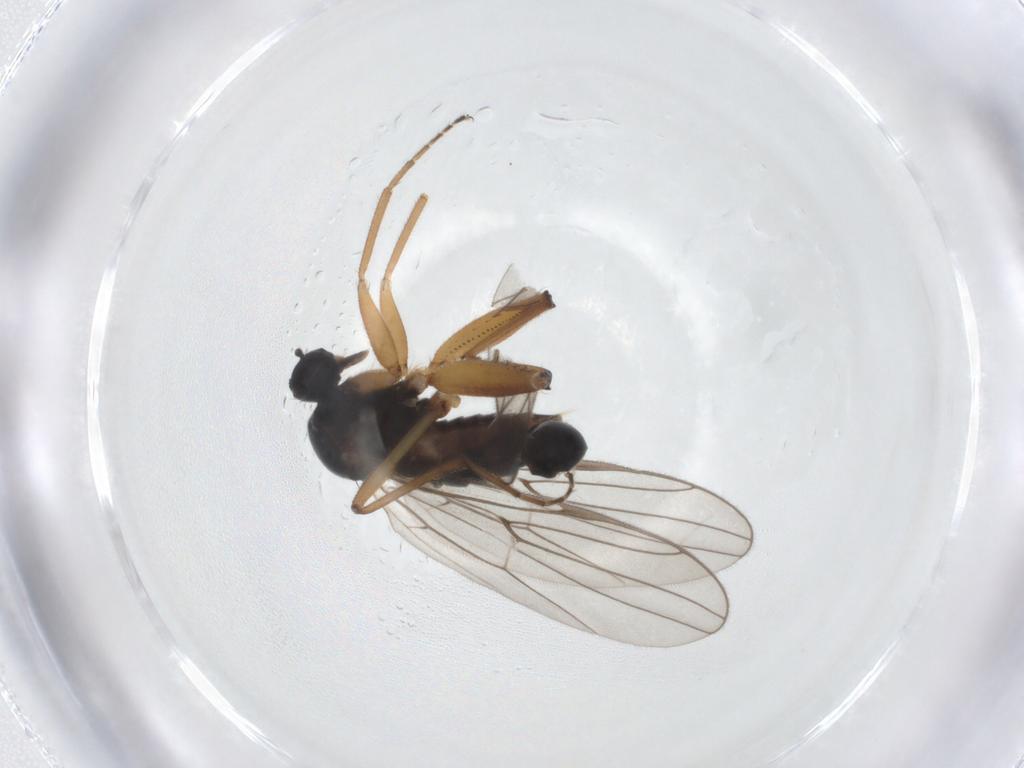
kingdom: Animalia
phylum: Arthropoda
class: Insecta
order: Diptera
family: Hybotidae
